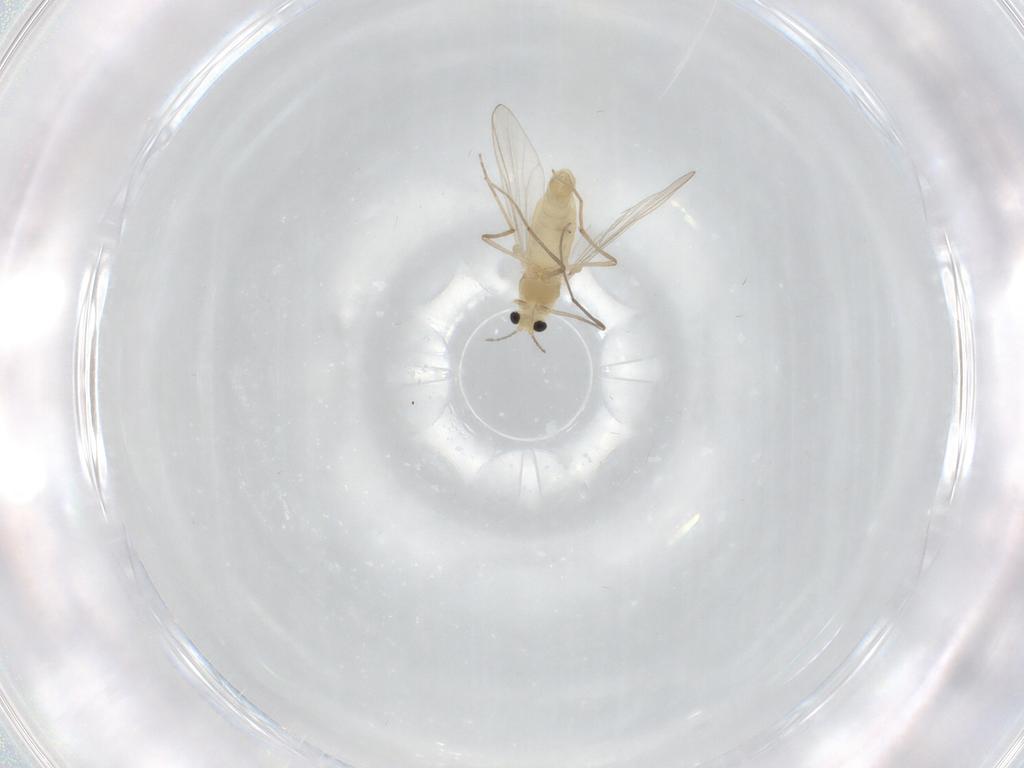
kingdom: Animalia
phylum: Arthropoda
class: Insecta
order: Diptera
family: Chironomidae
